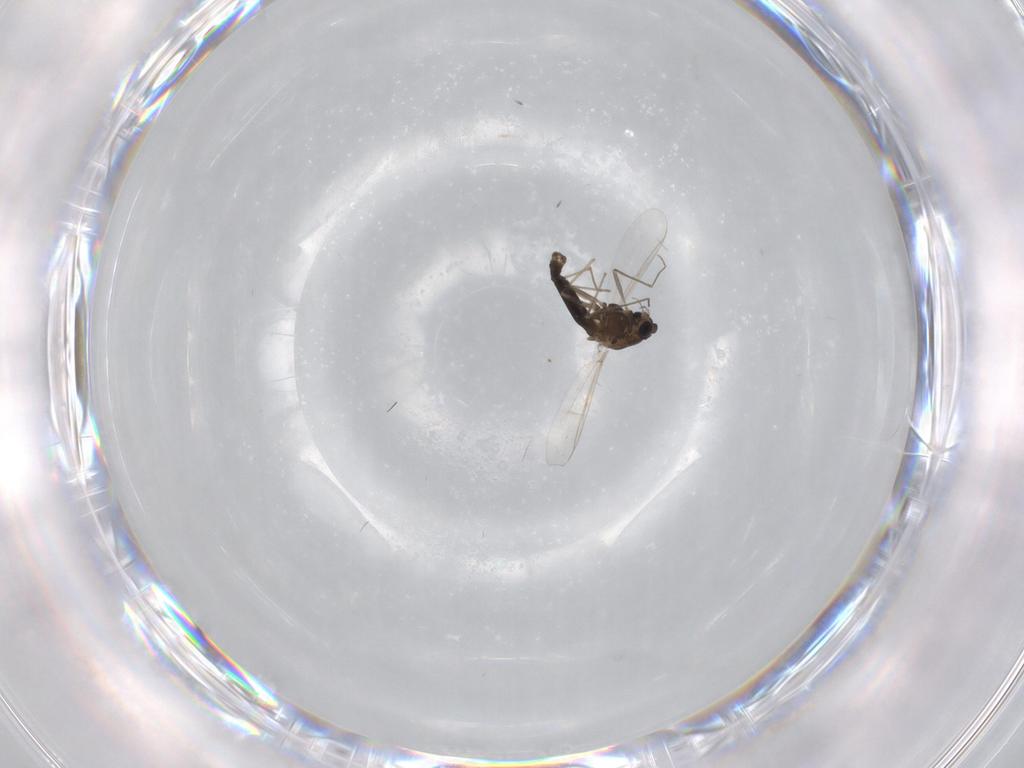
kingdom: Animalia
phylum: Arthropoda
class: Insecta
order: Diptera
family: Chironomidae
